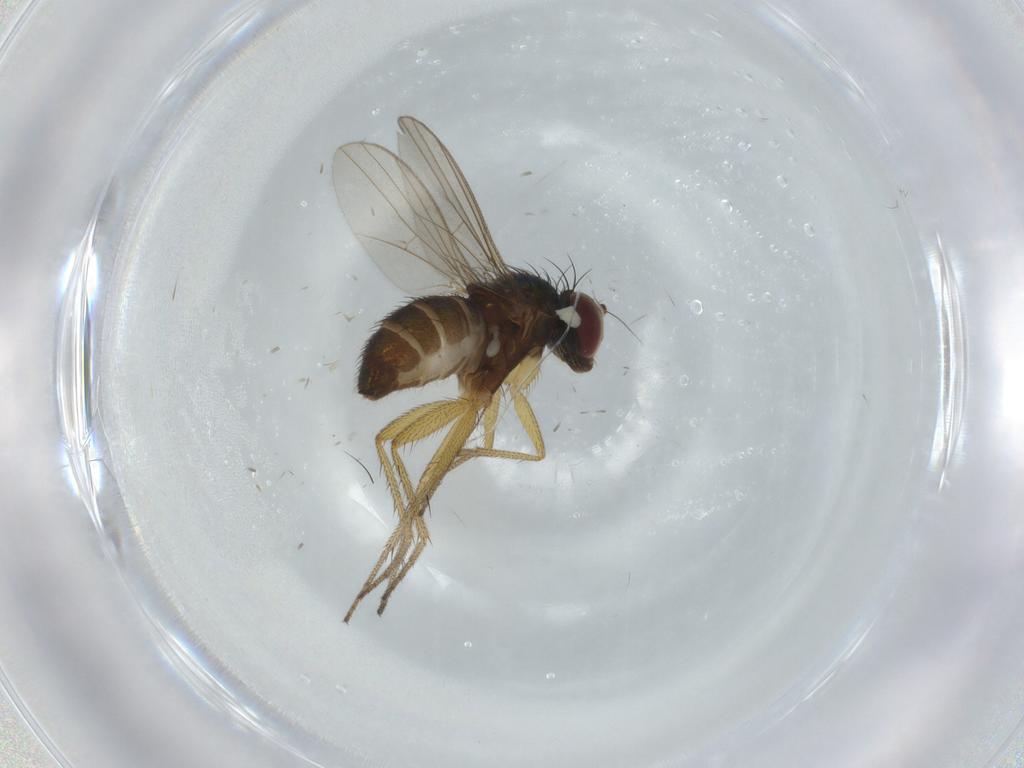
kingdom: Animalia
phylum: Arthropoda
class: Insecta
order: Diptera
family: Dolichopodidae
